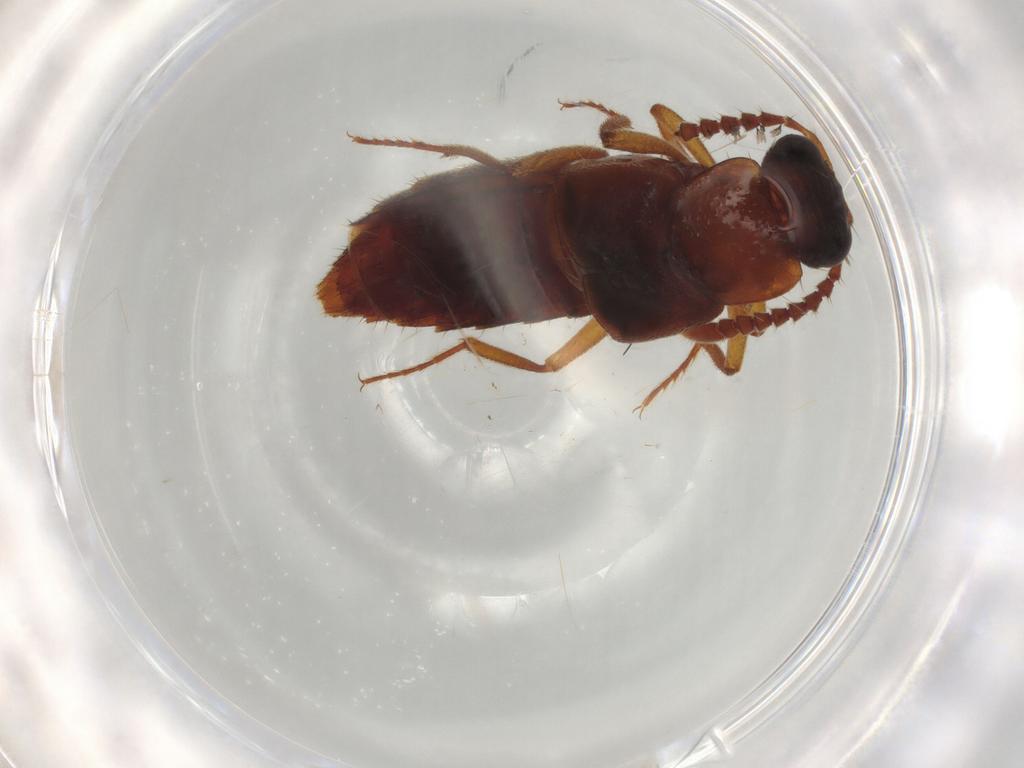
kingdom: Animalia
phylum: Arthropoda
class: Insecta
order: Coleoptera
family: Staphylinidae
